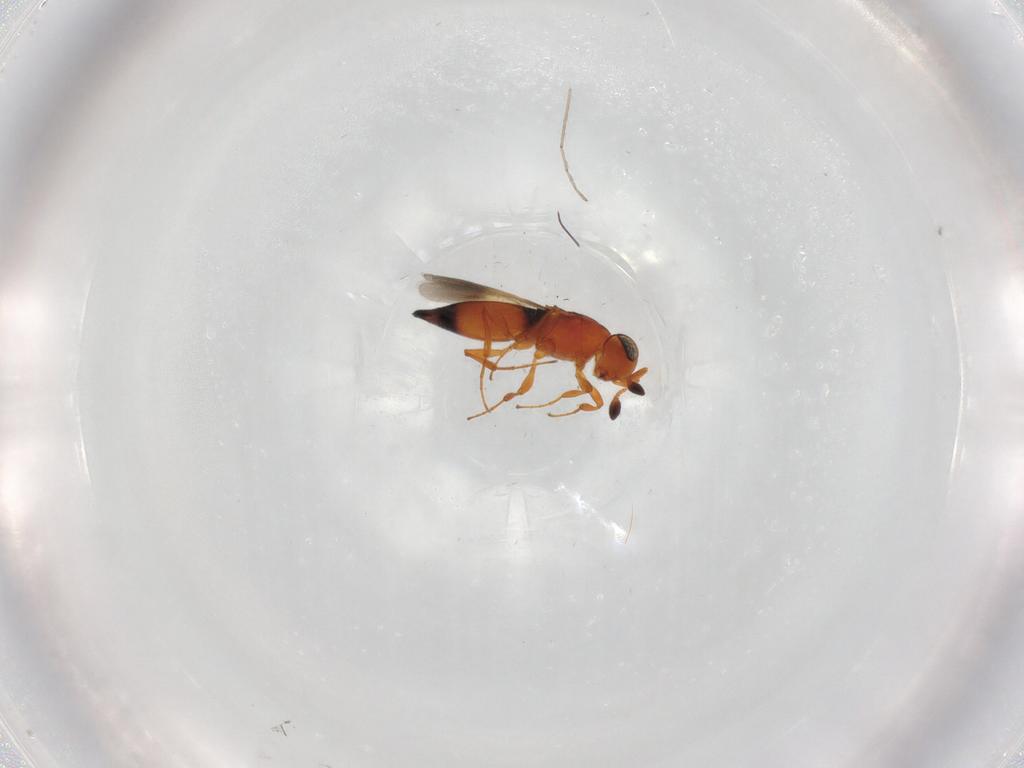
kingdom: Animalia
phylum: Arthropoda
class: Insecta
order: Hymenoptera
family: Platygastridae
